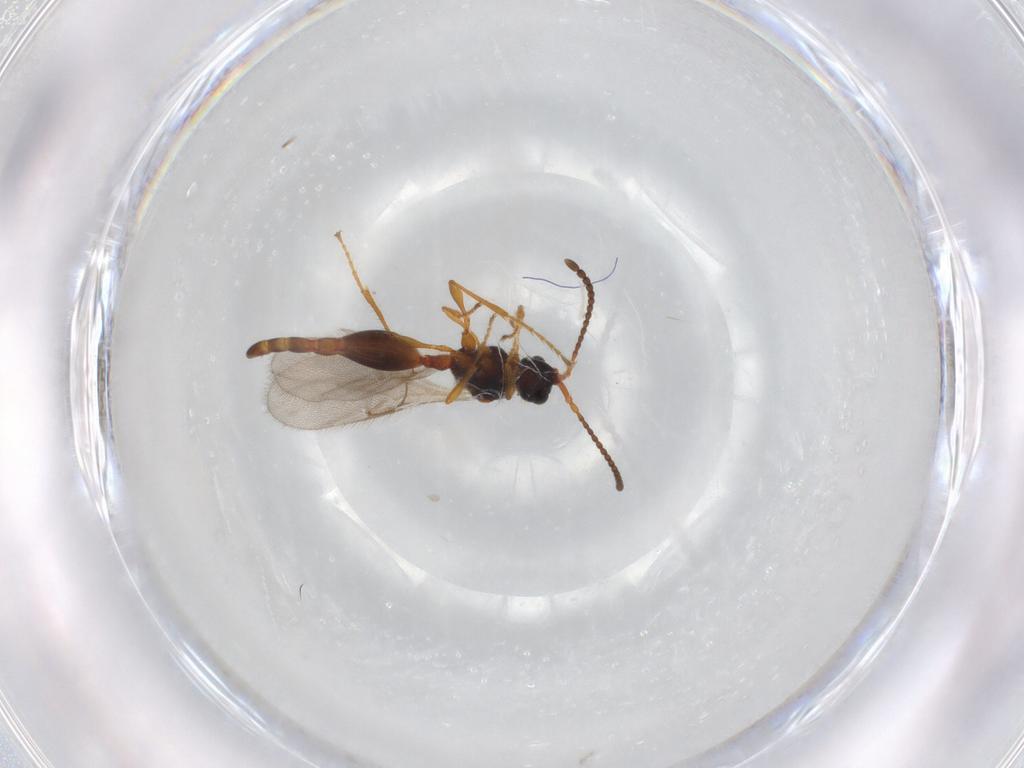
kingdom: Animalia
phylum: Arthropoda
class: Insecta
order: Hymenoptera
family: Diapriidae
